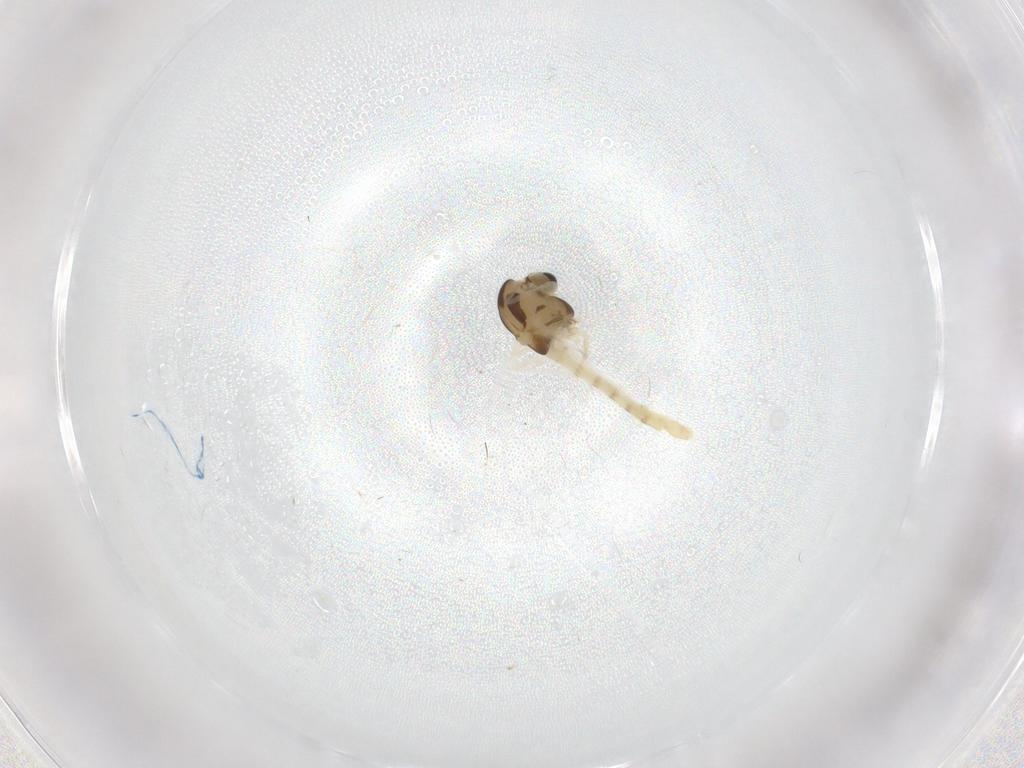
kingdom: Animalia
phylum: Arthropoda
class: Insecta
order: Diptera
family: Chironomidae
